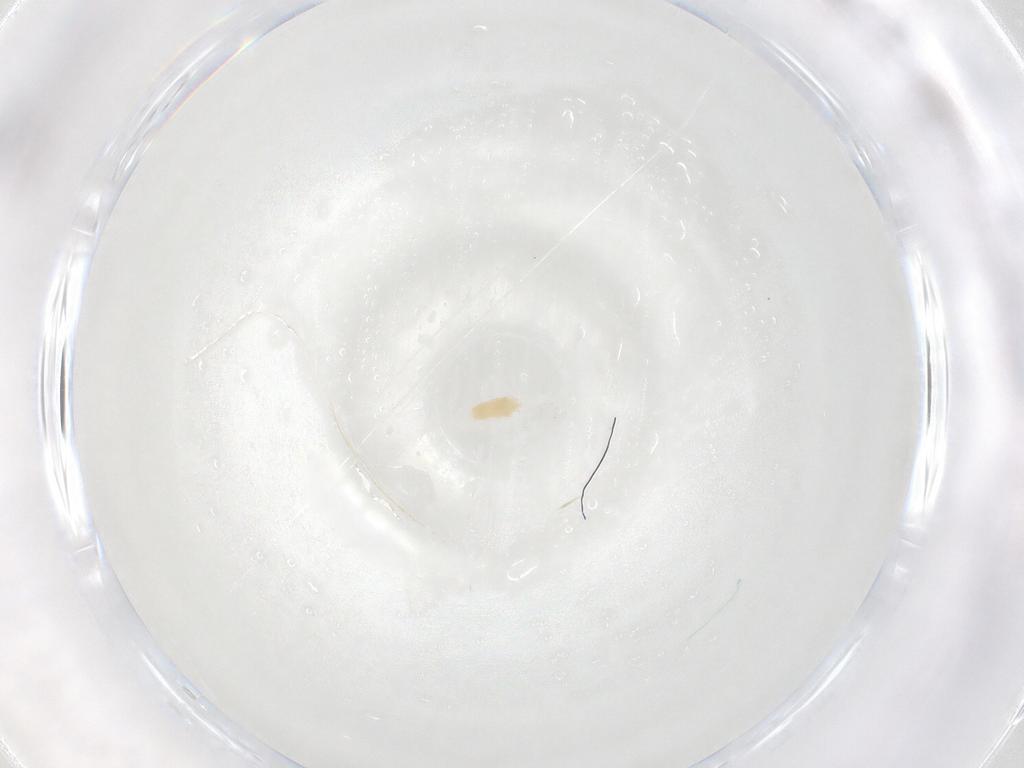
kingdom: Animalia
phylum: Arthropoda
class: Arachnida
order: Trombidiformes
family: Eupodidae
